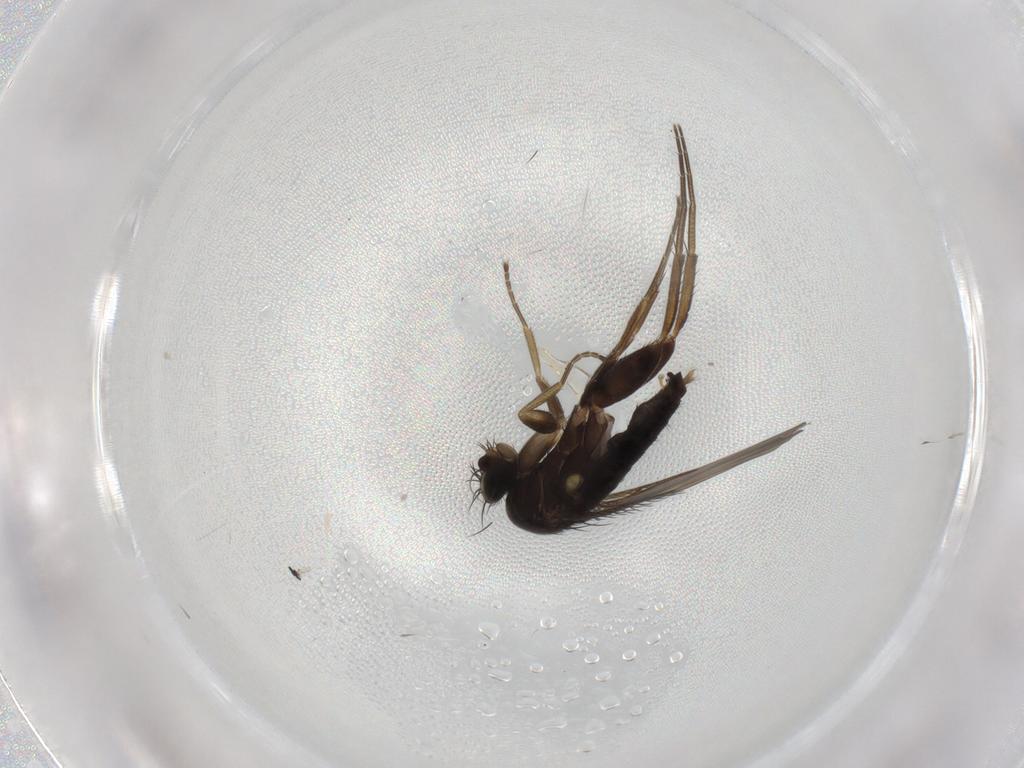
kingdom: Animalia
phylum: Arthropoda
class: Insecta
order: Diptera
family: Phoridae
